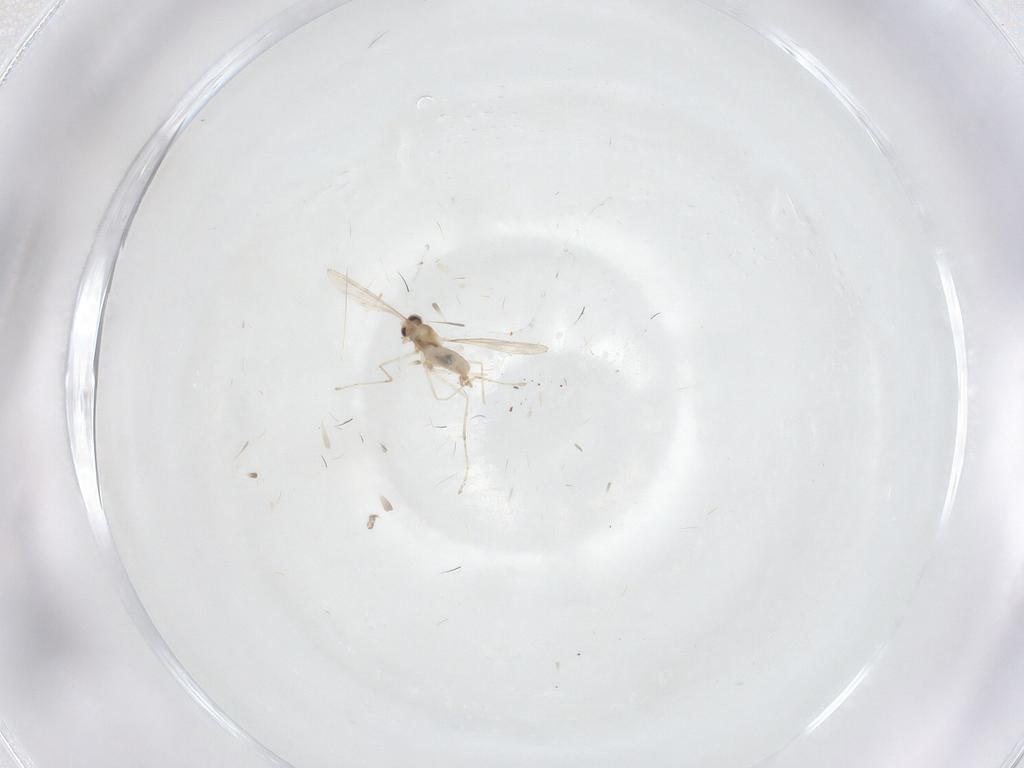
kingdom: Animalia
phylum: Arthropoda
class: Insecta
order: Diptera
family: Cecidomyiidae
